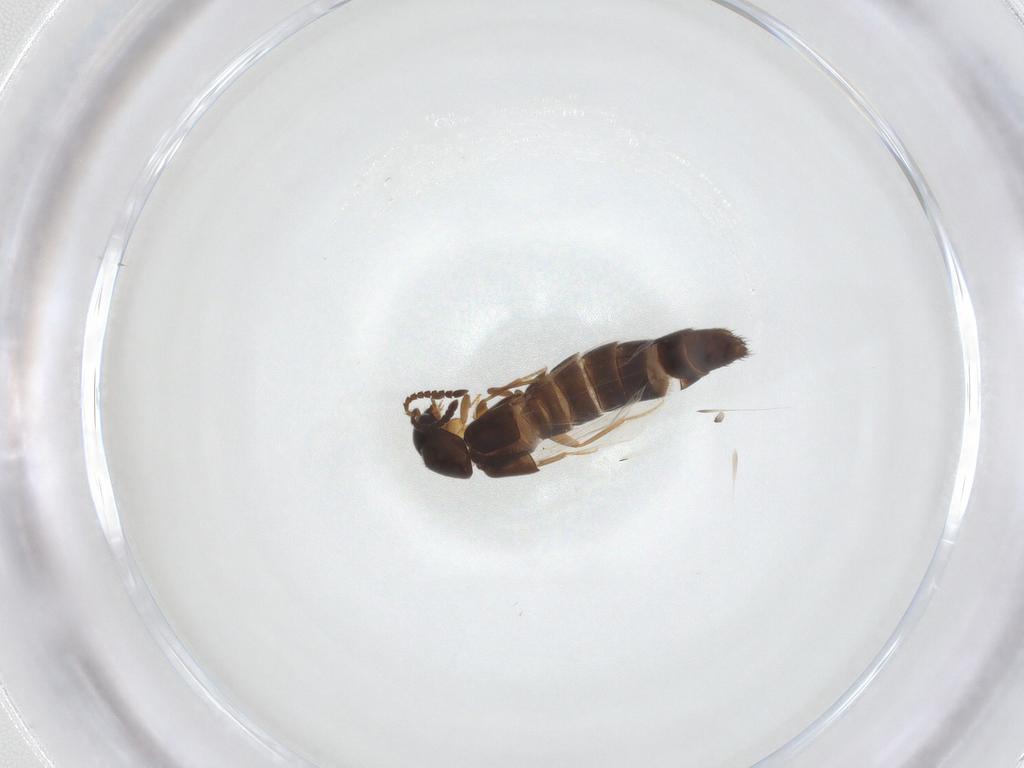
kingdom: Animalia
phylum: Arthropoda
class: Insecta
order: Coleoptera
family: Staphylinidae
